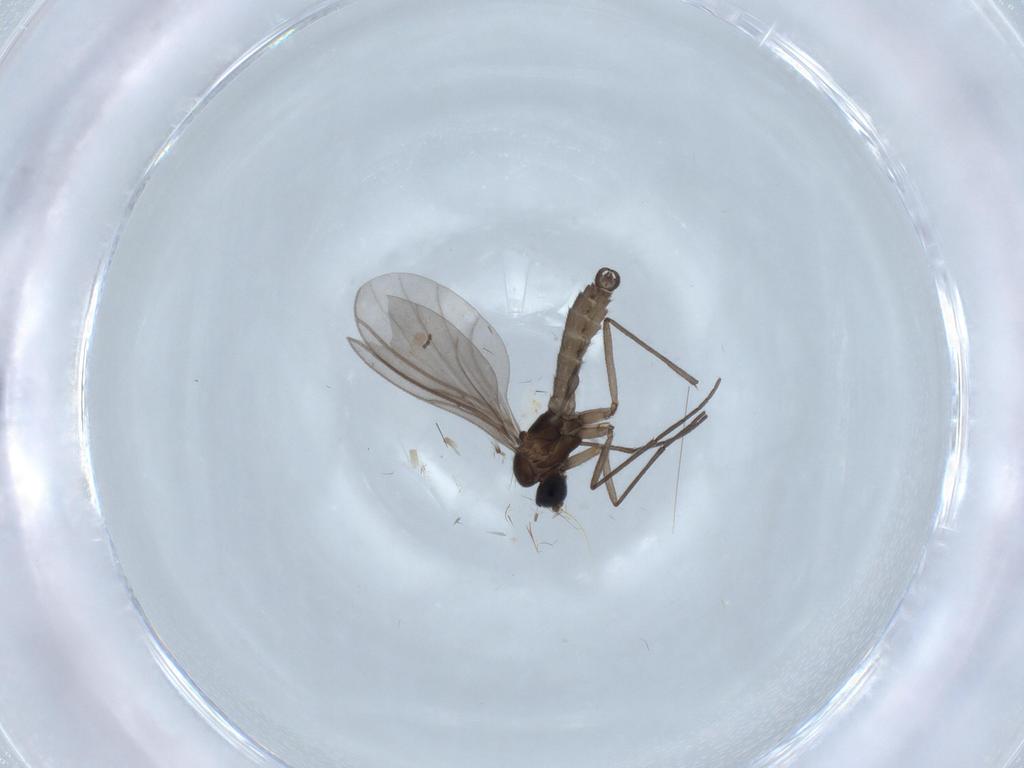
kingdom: Animalia
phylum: Arthropoda
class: Insecta
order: Diptera
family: Sciaridae
